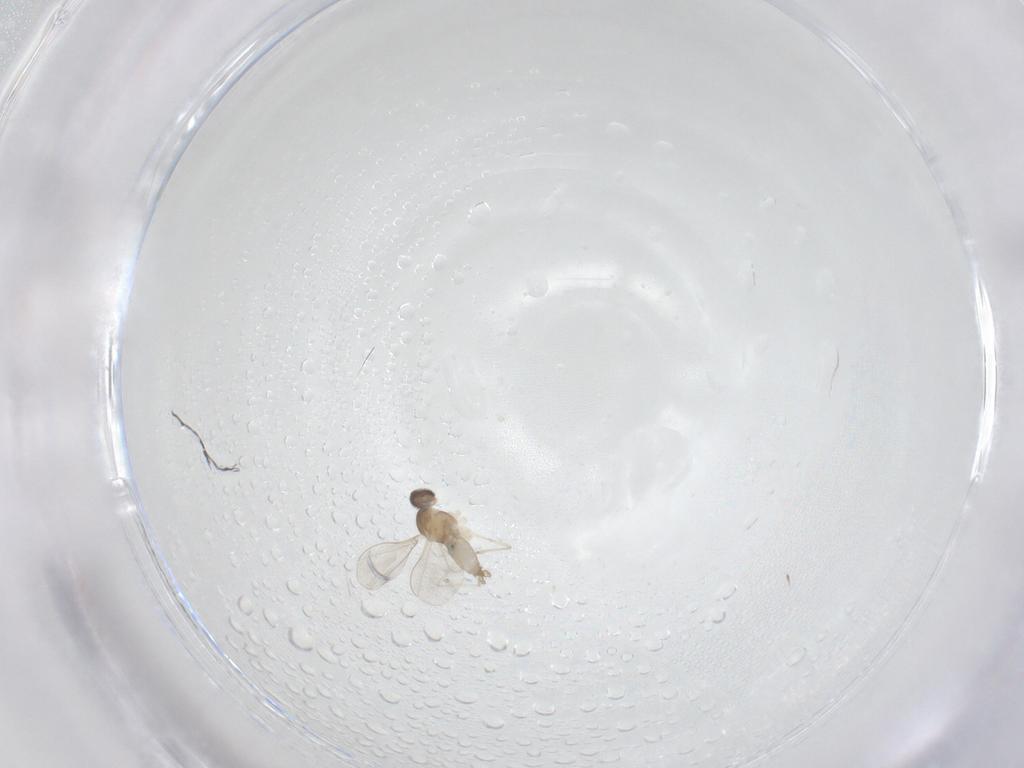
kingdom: Animalia
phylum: Arthropoda
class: Insecta
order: Diptera
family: Cecidomyiidae
